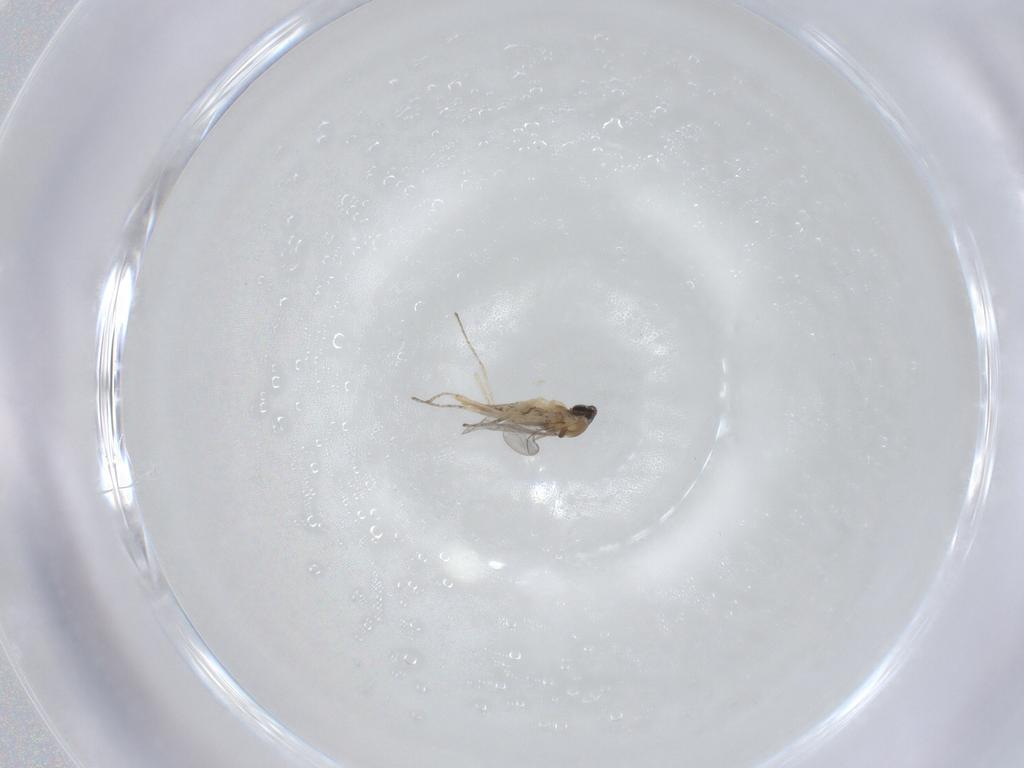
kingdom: Animalia
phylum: Arthropoda
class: Insecta
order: Diptera
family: Cecidomyiidae
